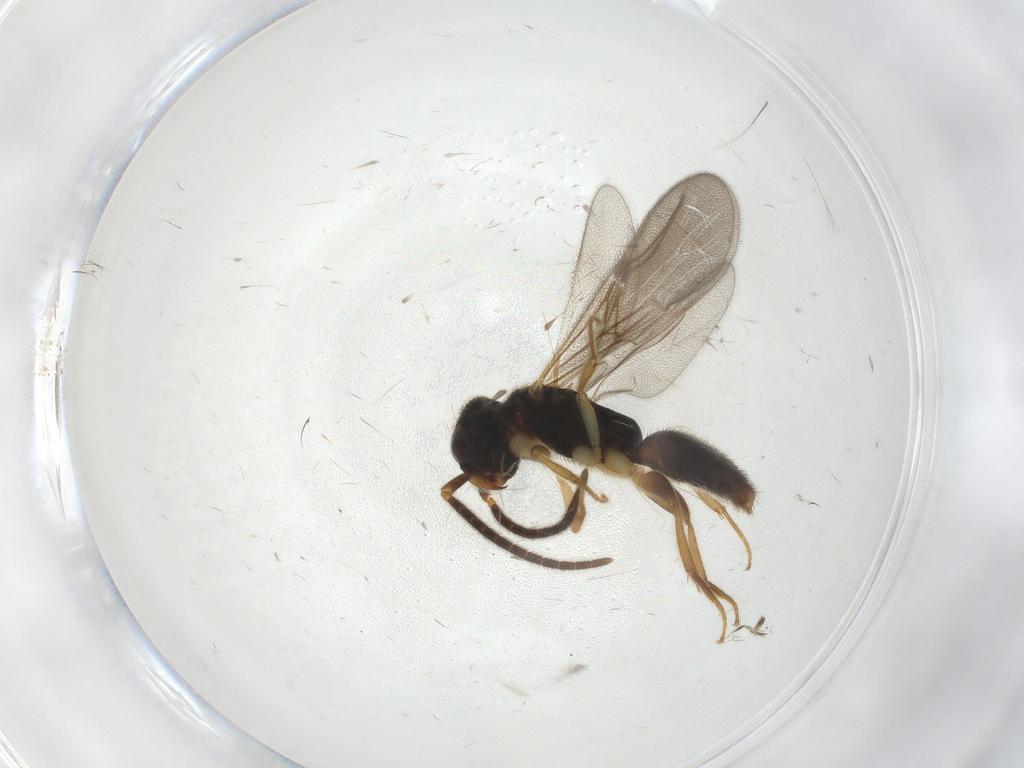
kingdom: Animalia
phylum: Arthropoda
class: Insecta
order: Hymenoptera
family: Bethylidae
